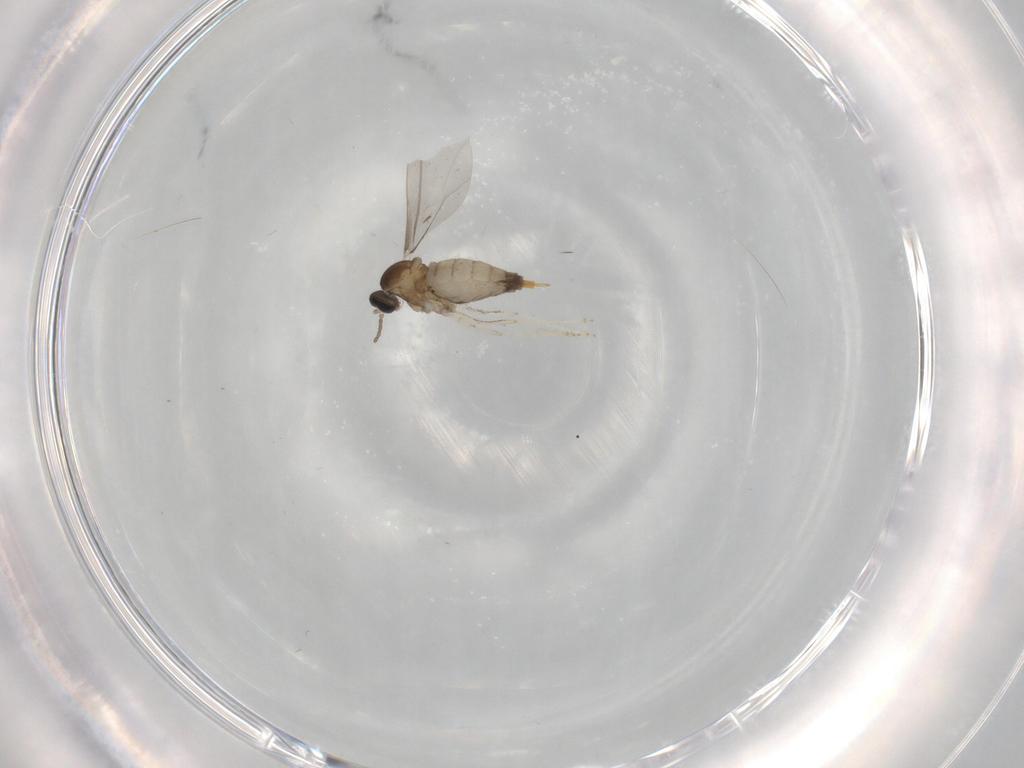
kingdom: Animalia
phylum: Arthropoda
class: Insecta
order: Diptera
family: Cecidomyiidae
